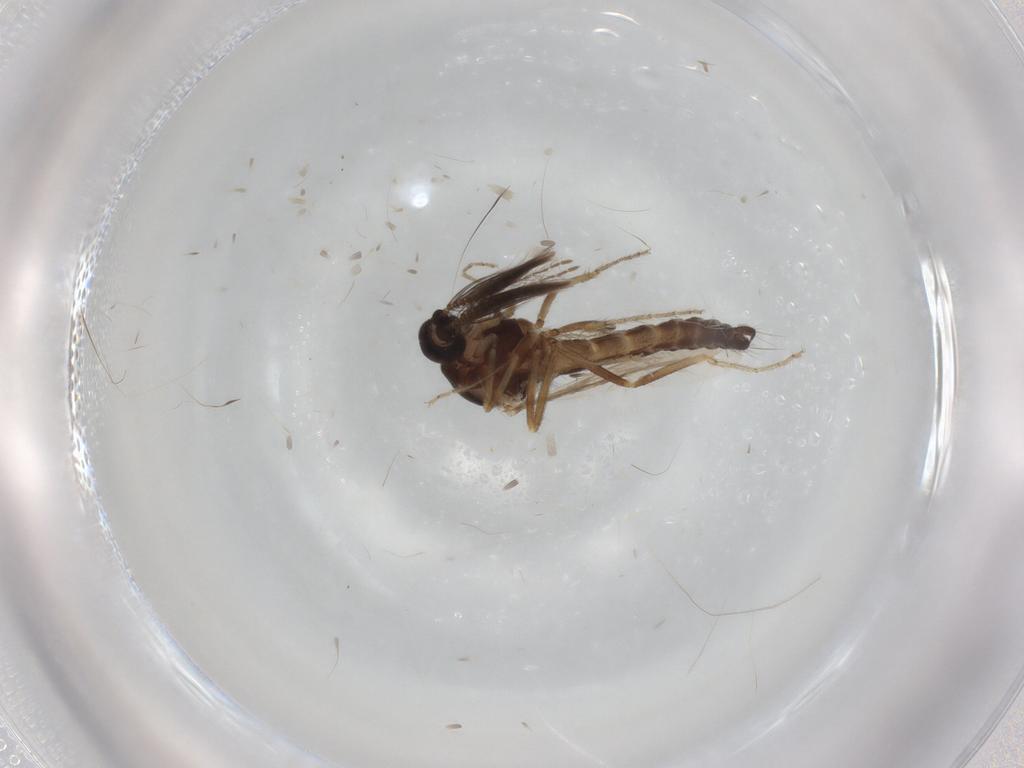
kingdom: Animalia
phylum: Arthropoda
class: Insecta
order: Diptera
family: Ceratopogonidae
